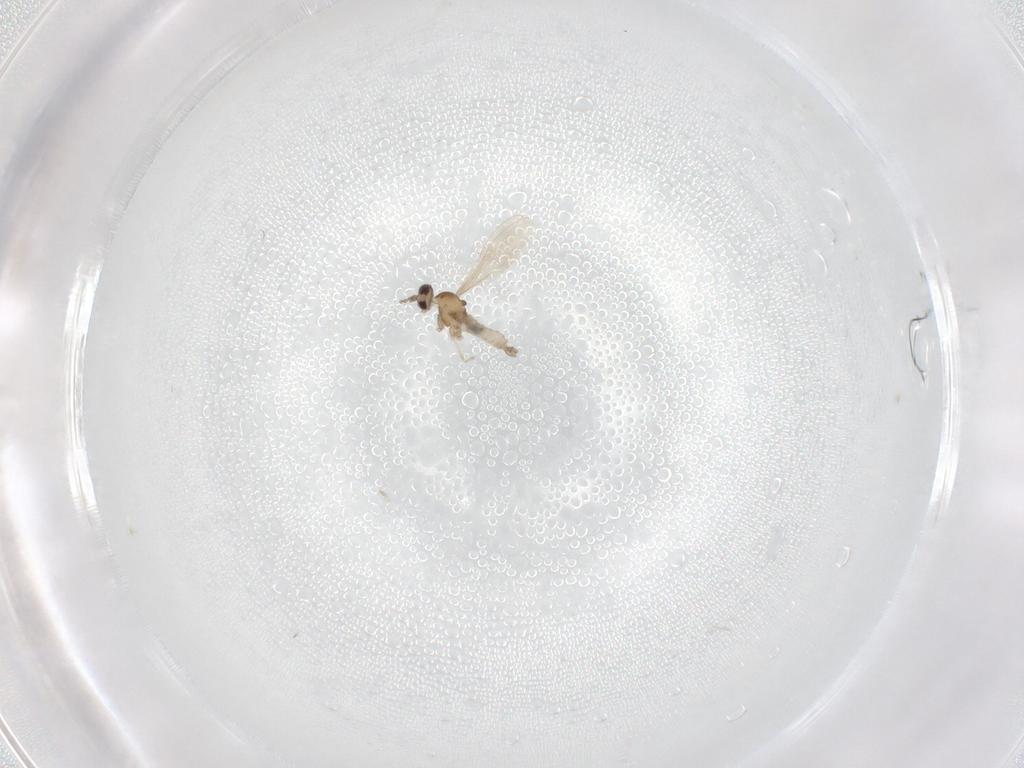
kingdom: Animalia
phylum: Arthropoda
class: Insecta
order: Diptera
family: Cecidomyiidae
